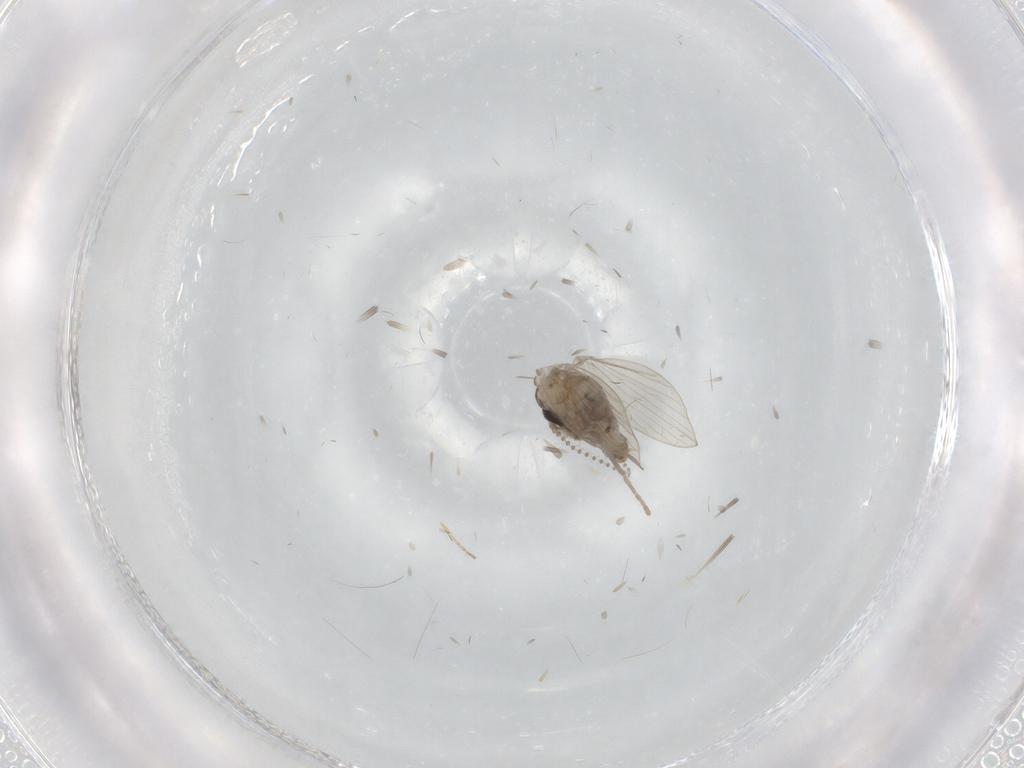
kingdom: Animalia
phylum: Arthropoda
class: Insecta
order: Diptera
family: Psychodidae
